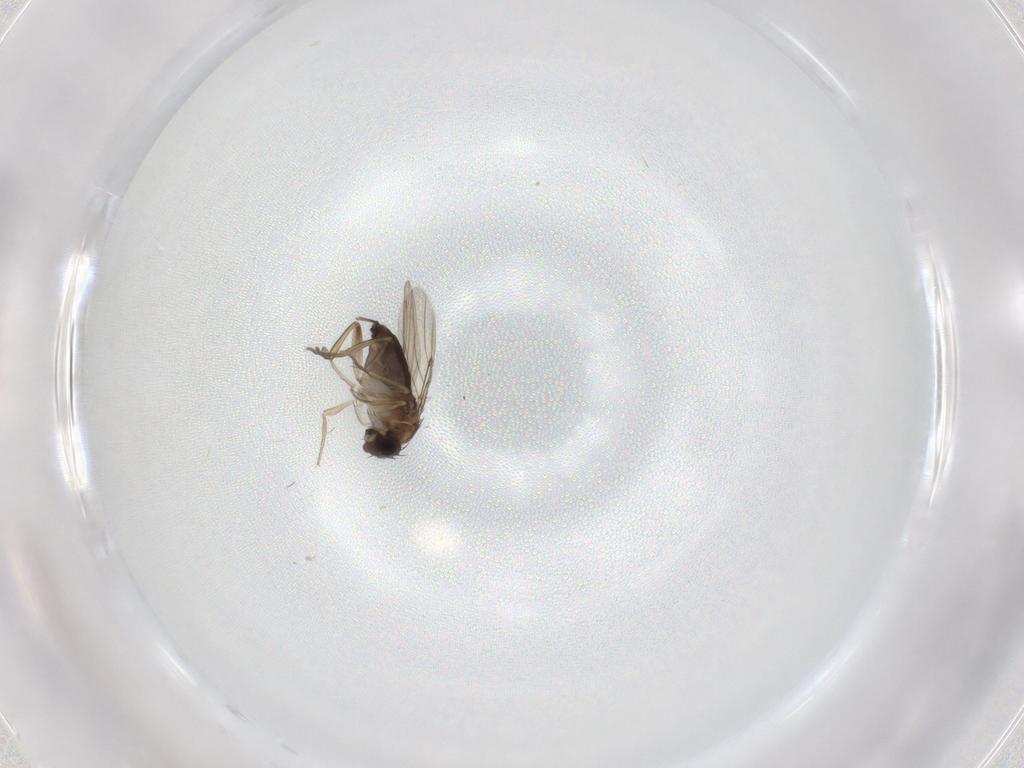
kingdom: Animalia
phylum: Arthropoda
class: Insecta
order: Diptera
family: Phoridae
